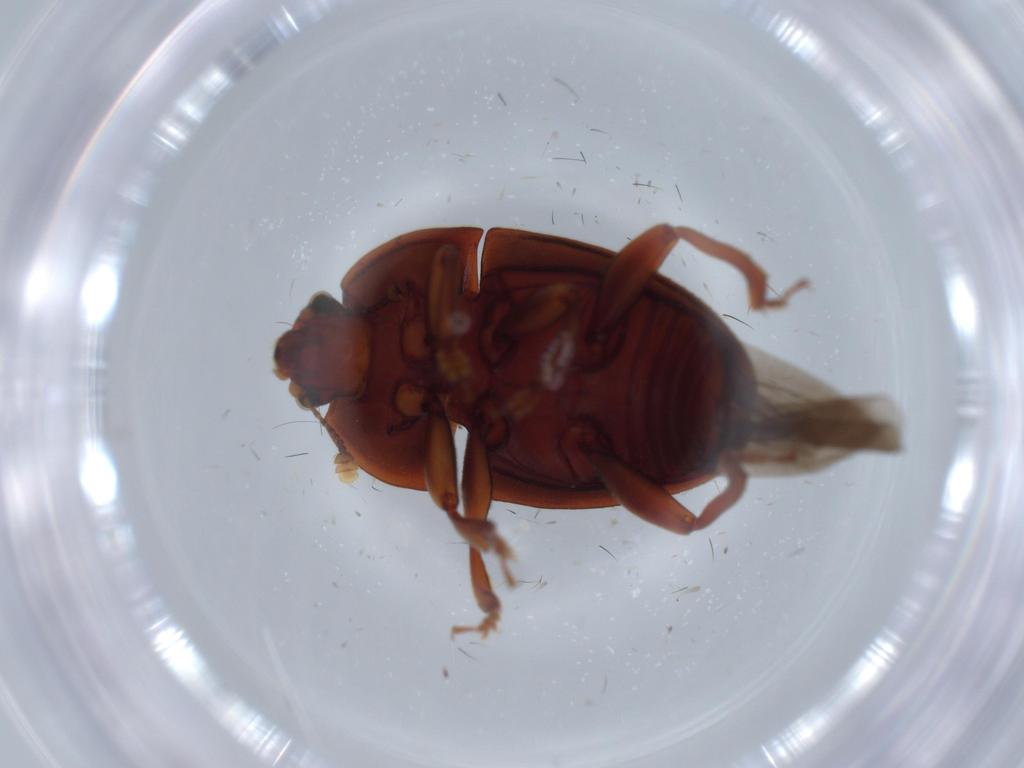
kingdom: Animalia
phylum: Arthropoda
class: Insecta
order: Coleoptera
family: Nitidulidae
